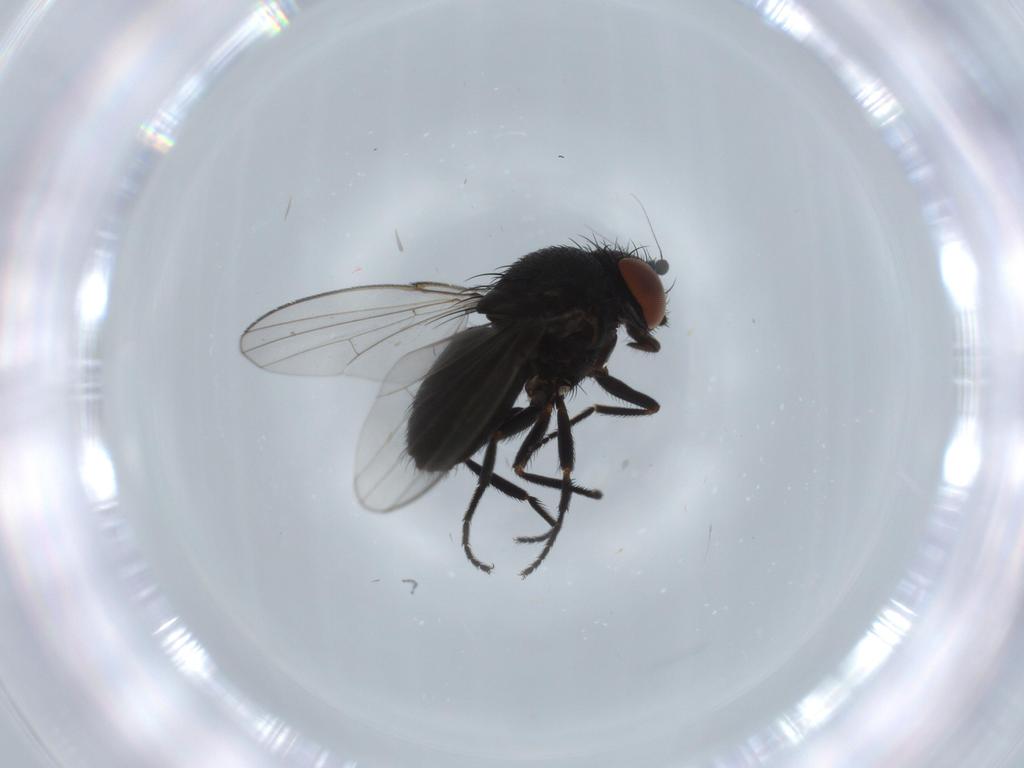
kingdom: Animalia
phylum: Arthropoda
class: Insecta
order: Diptera
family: Milichiidae
